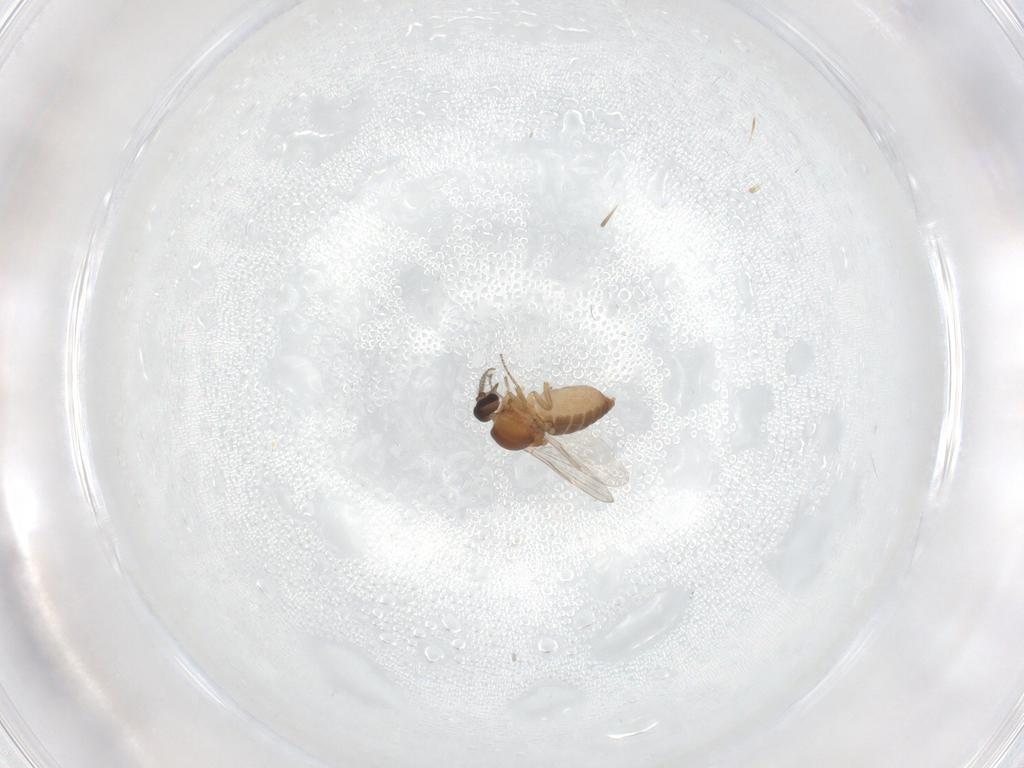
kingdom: Animalia
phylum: Arthropoda
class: Insecta
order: Diptera
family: Ceratopogonidae
